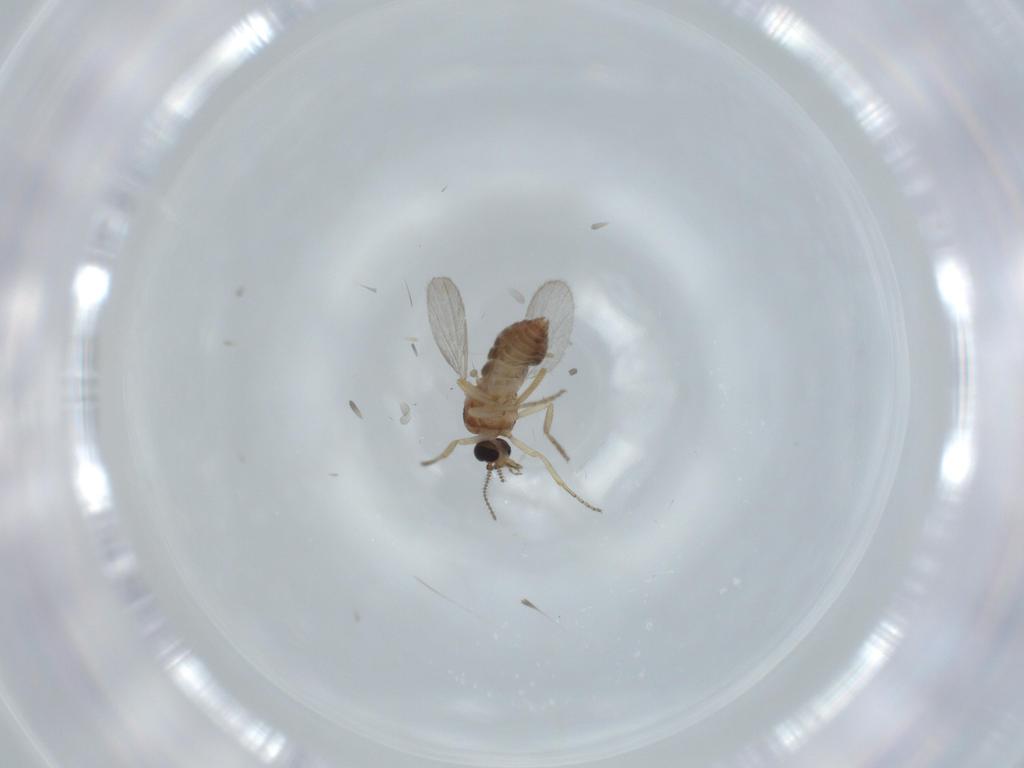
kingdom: Animalia
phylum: Arthropoda
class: Insecta
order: Diptera
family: Ceratopogonidae
